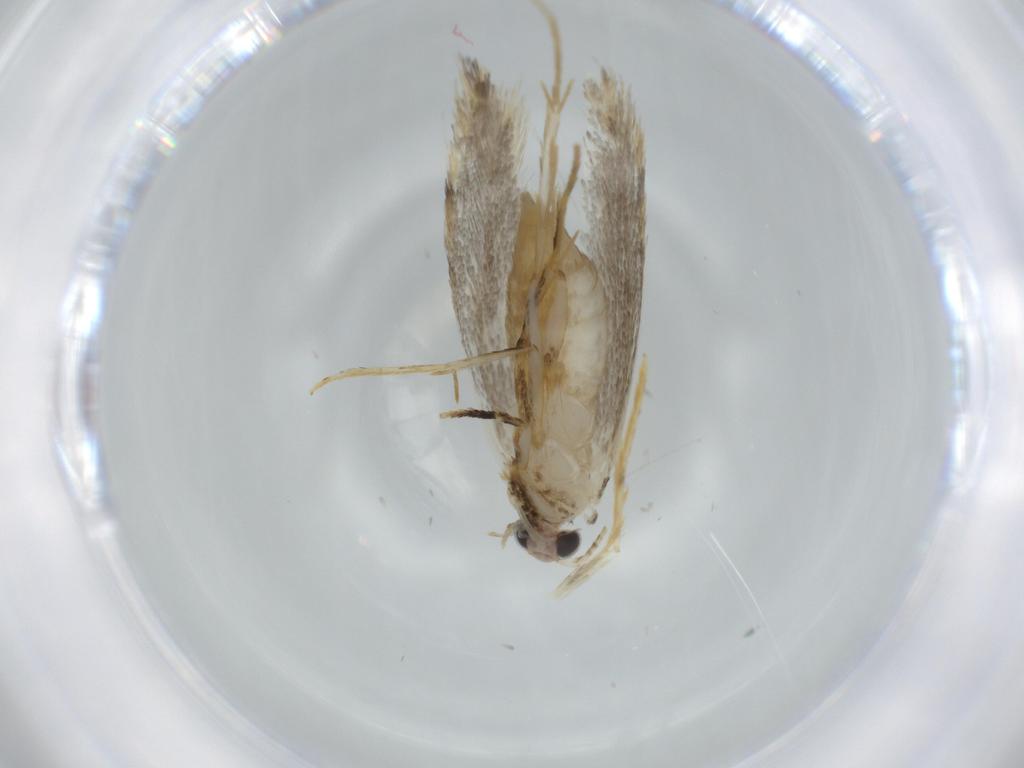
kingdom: Animalia
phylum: Arthropoda
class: Insecta
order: Lepidoptera
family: Tineidae
